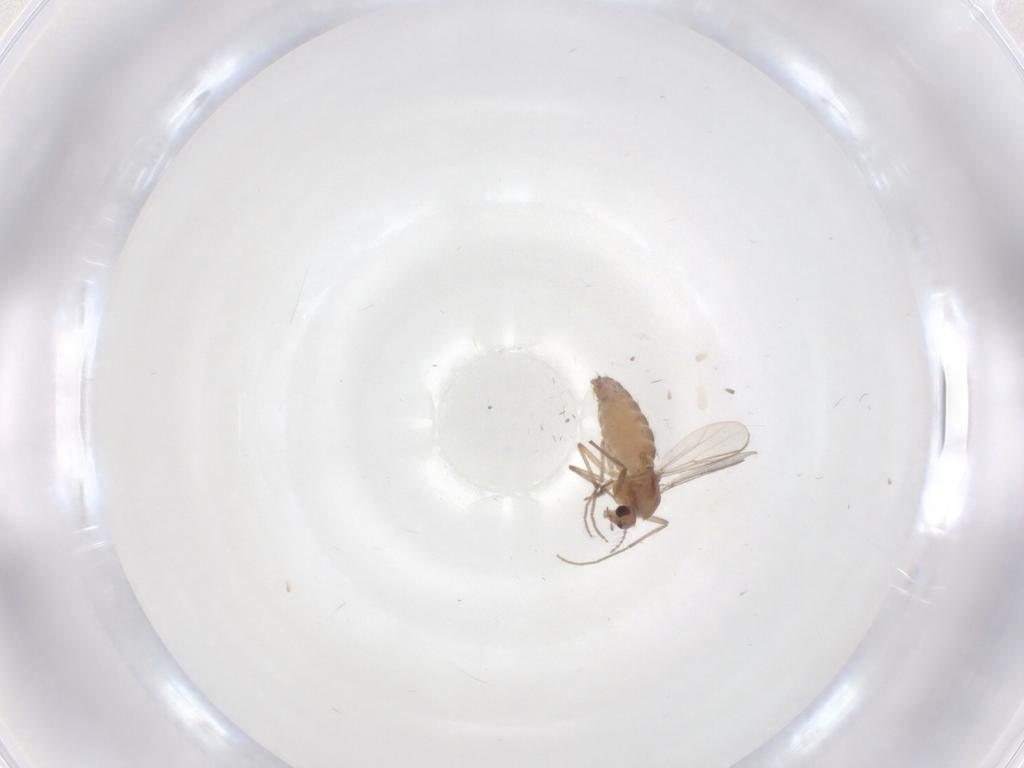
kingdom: Animalia
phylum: Arthropoda
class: Insecta
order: Diptera
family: Chironomidae
